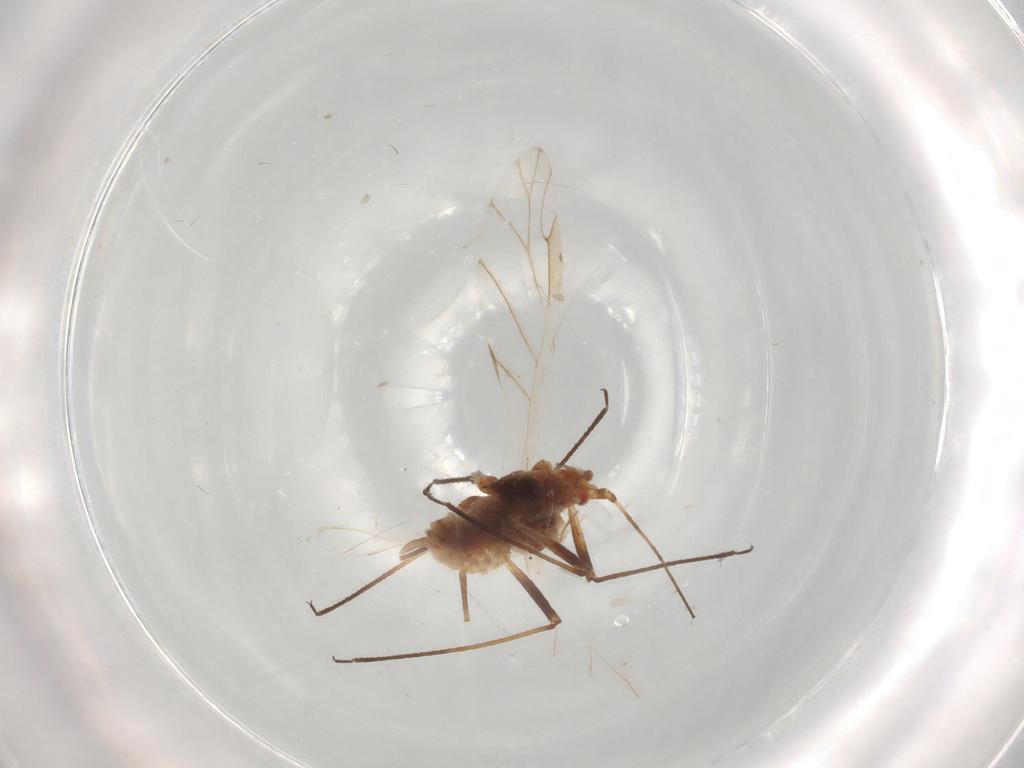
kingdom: Animalia
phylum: Arthropoda
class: Insecta
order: Hemiptera
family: Aphididae
